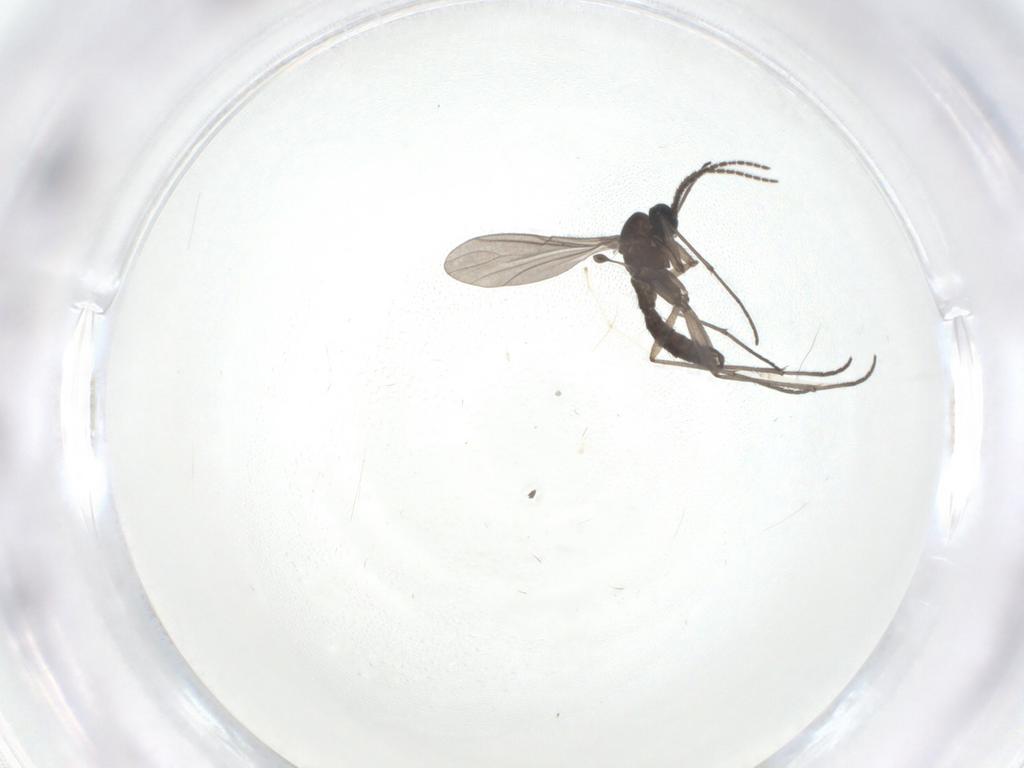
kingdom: Animalia
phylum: Arthropoda
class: Insecta
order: Diptera
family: Sciaridae
